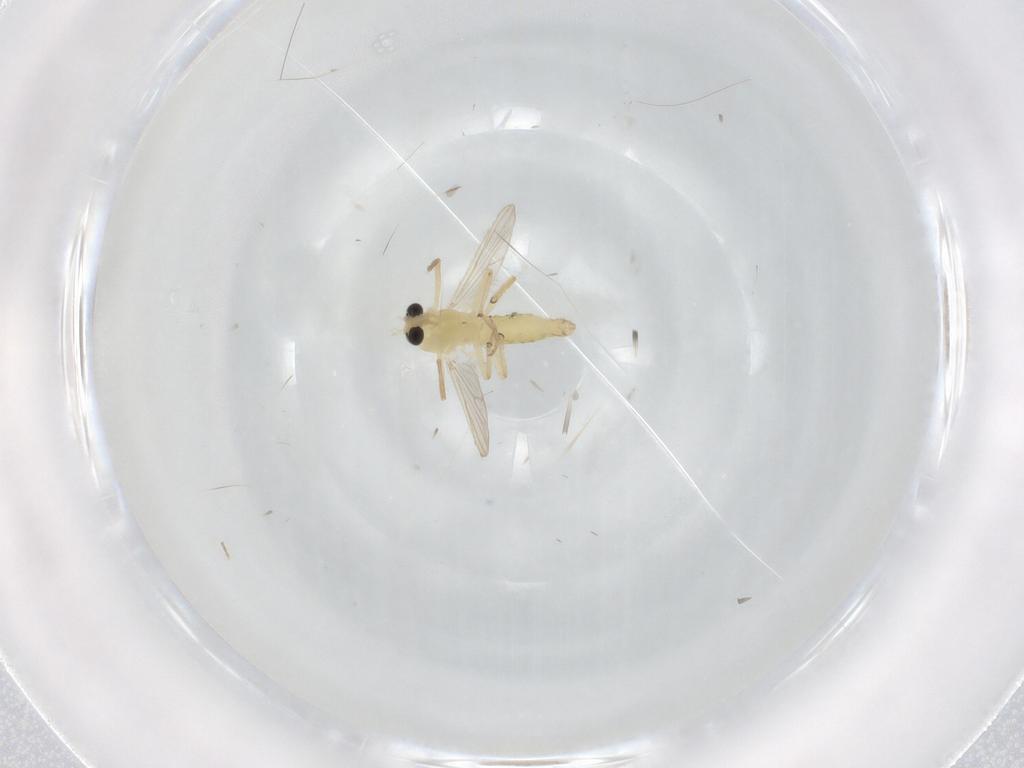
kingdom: Animalia
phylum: Arthropoda
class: Insecta
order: Diptera
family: Chironomidae
